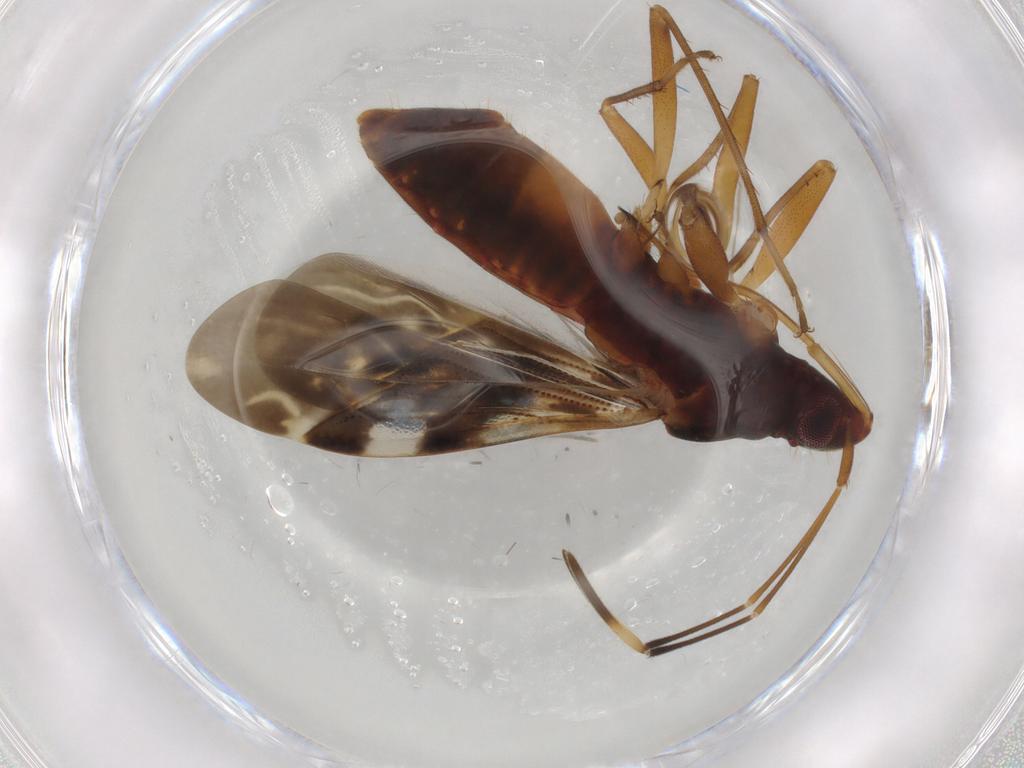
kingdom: Animalia
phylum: Arthropoda
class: Insecta
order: Hemiptera
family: Rhyparochromidae
